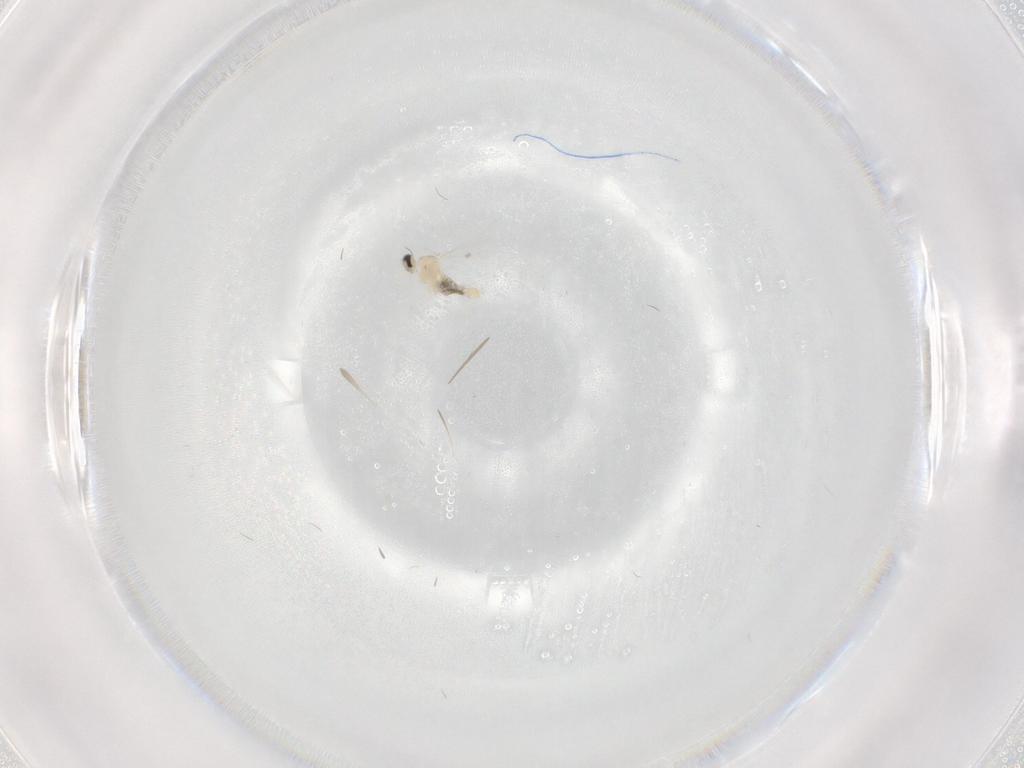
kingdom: Animalia
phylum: Arthropoda
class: Insecta
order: Diptera
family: Cecidomyiidae
